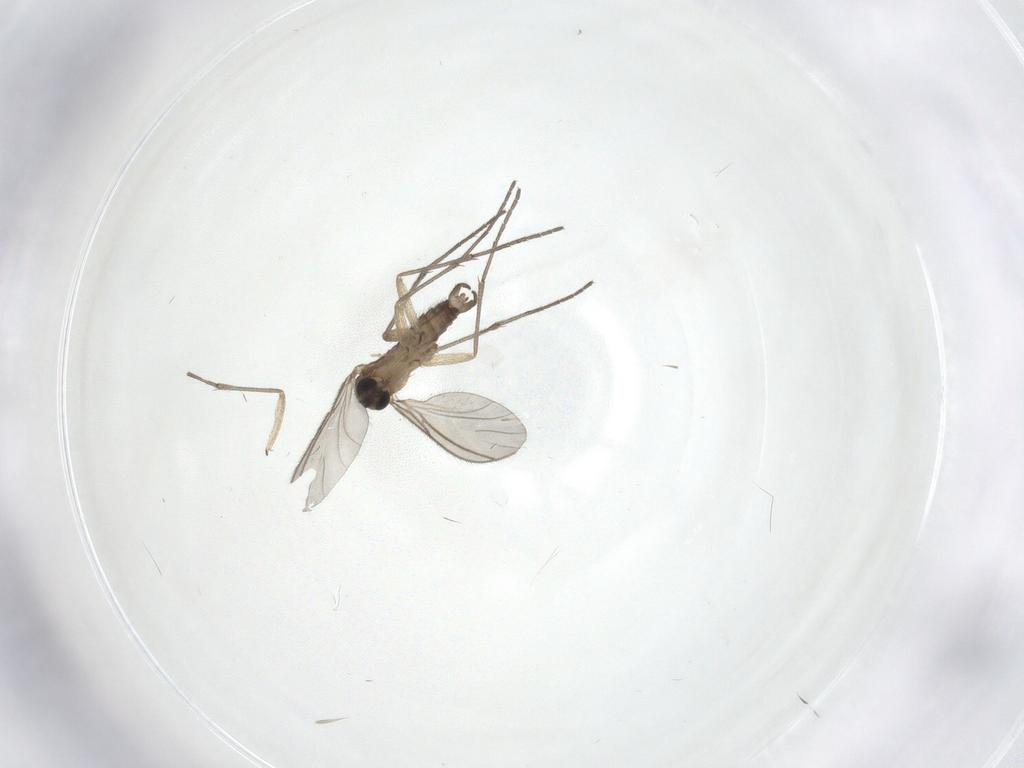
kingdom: Animalia
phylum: Arthropoda
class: Insecta
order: Diptera
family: Sciaridae
